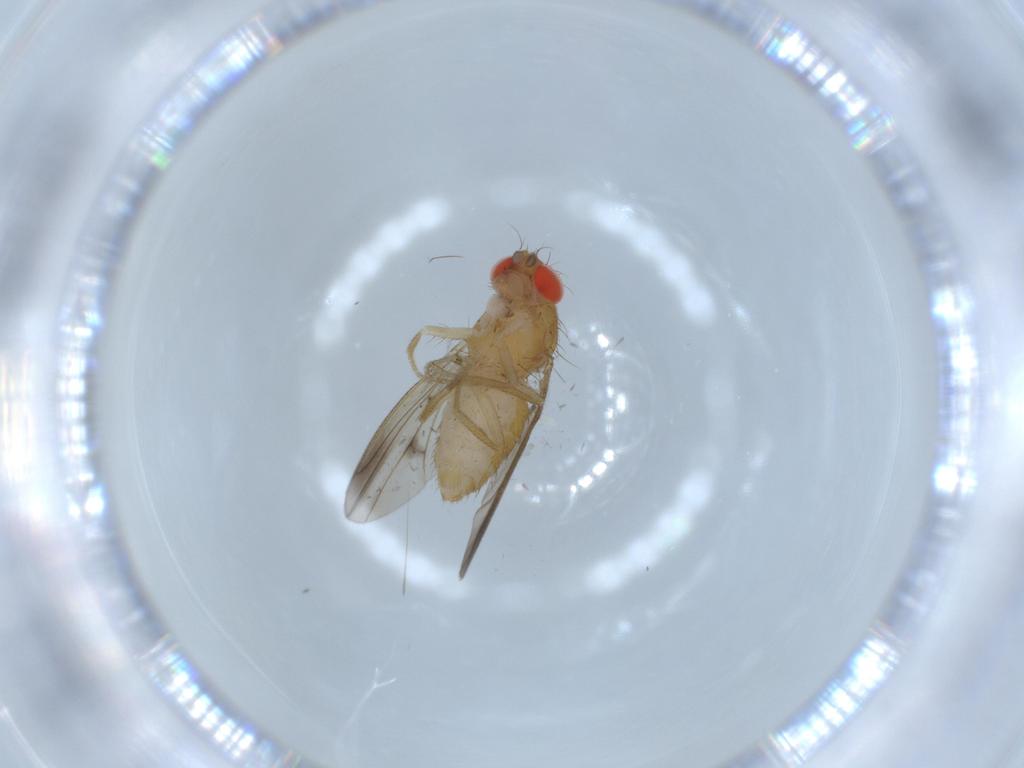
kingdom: Animalia
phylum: Arthropoda
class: Insecta
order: Diptera
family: Drosophilidae
